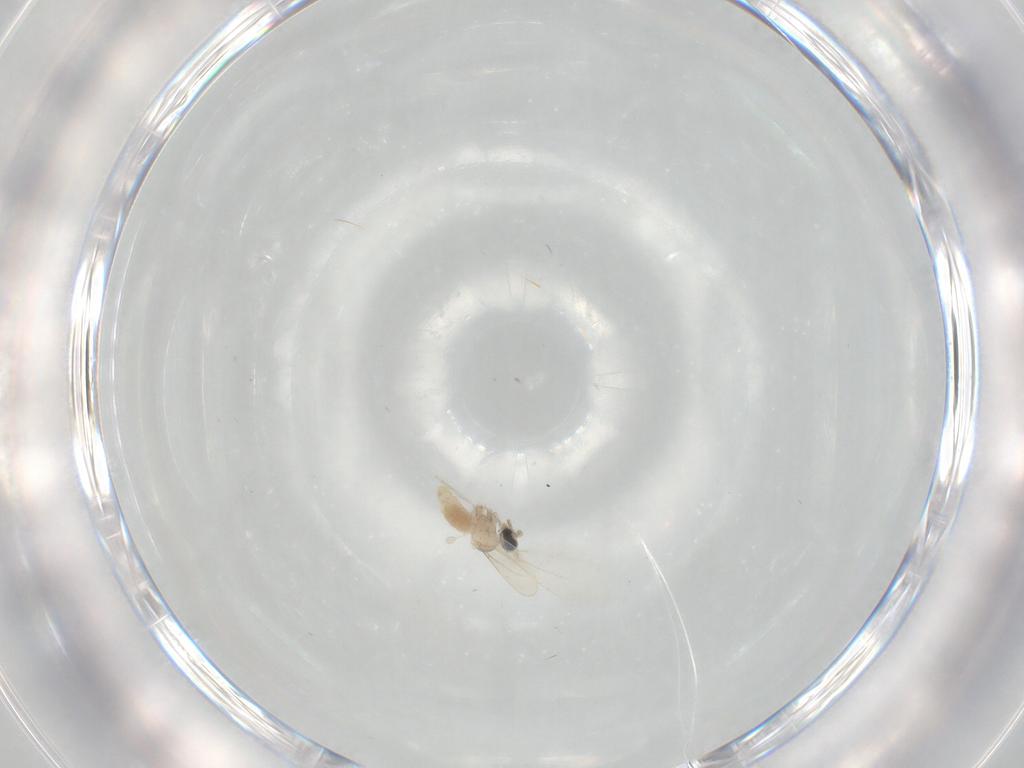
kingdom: Animalia
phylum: Arthropoda
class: Insecta
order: Diptera
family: Cecidomyiidae
